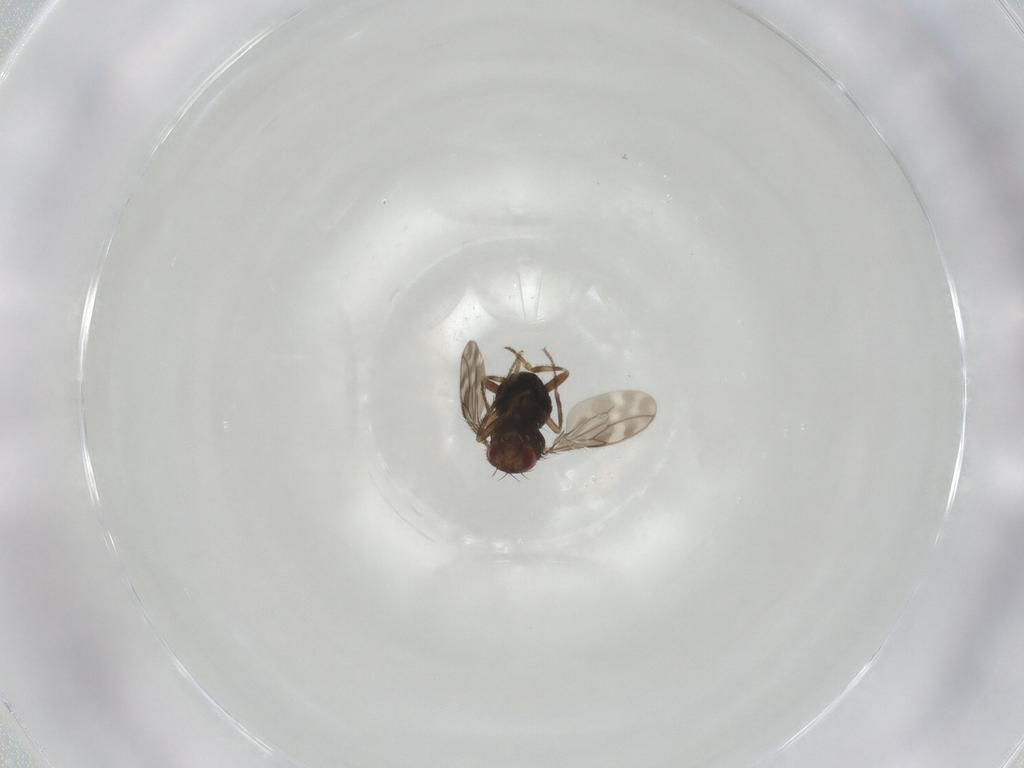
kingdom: Animalia
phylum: Arthropoda
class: Insecta
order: Diptera
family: Sphaeroceridae
